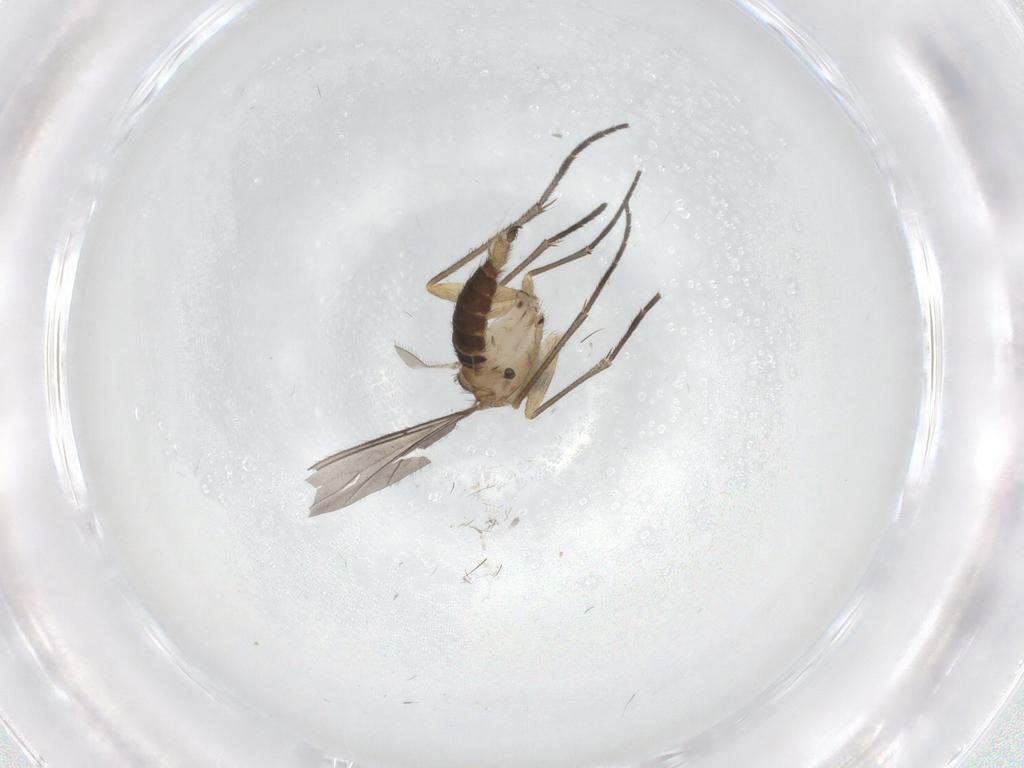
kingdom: Animalia
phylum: Arthropoda
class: Insecta
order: Diptera
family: Sciaridae
